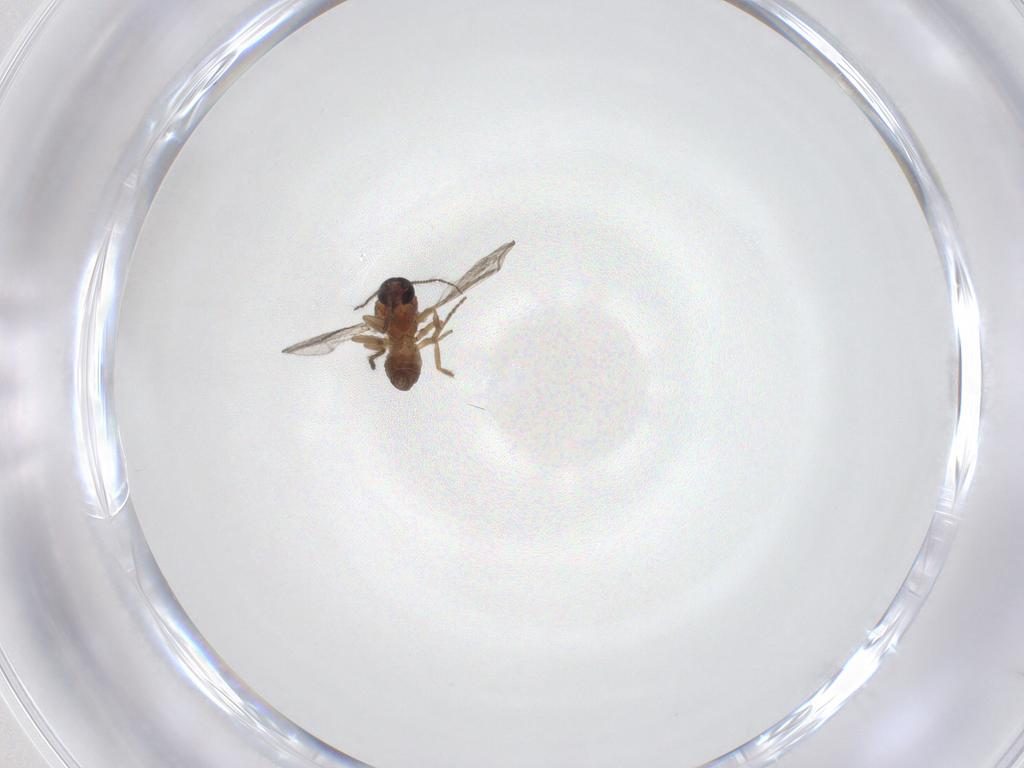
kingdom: Animalia
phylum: Arthropoda
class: Insecta
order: Diptera
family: Ceratopogonidae
